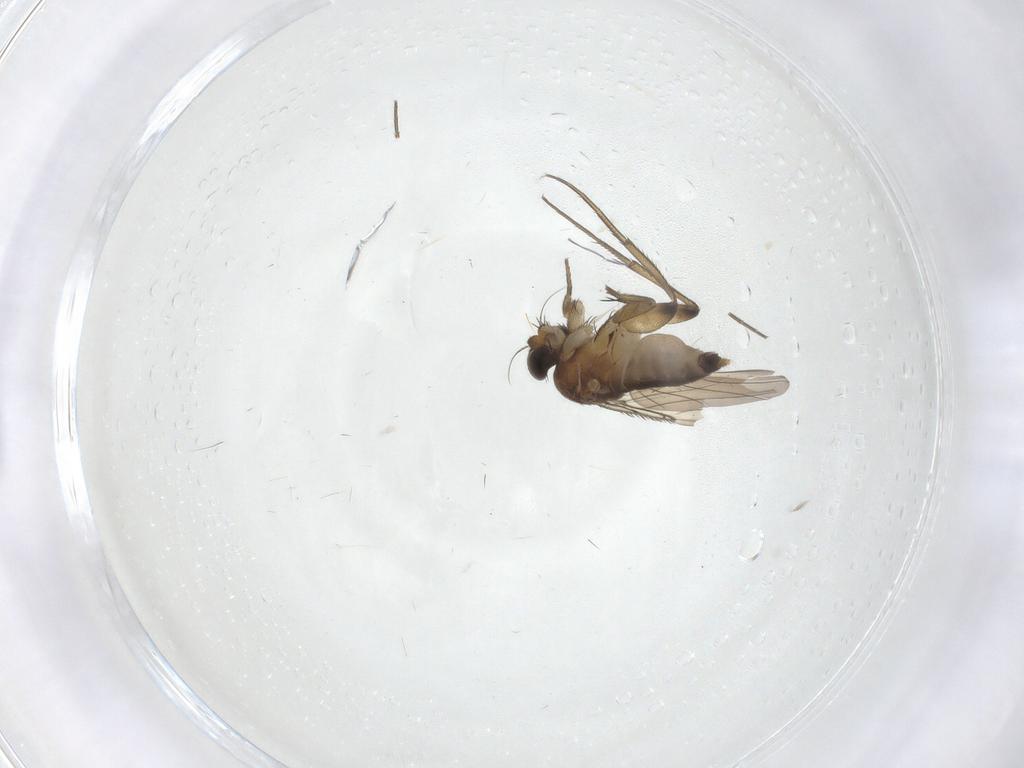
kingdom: Animalia
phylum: Arthropoda
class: Insecta
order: Diptera
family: Phoridae
